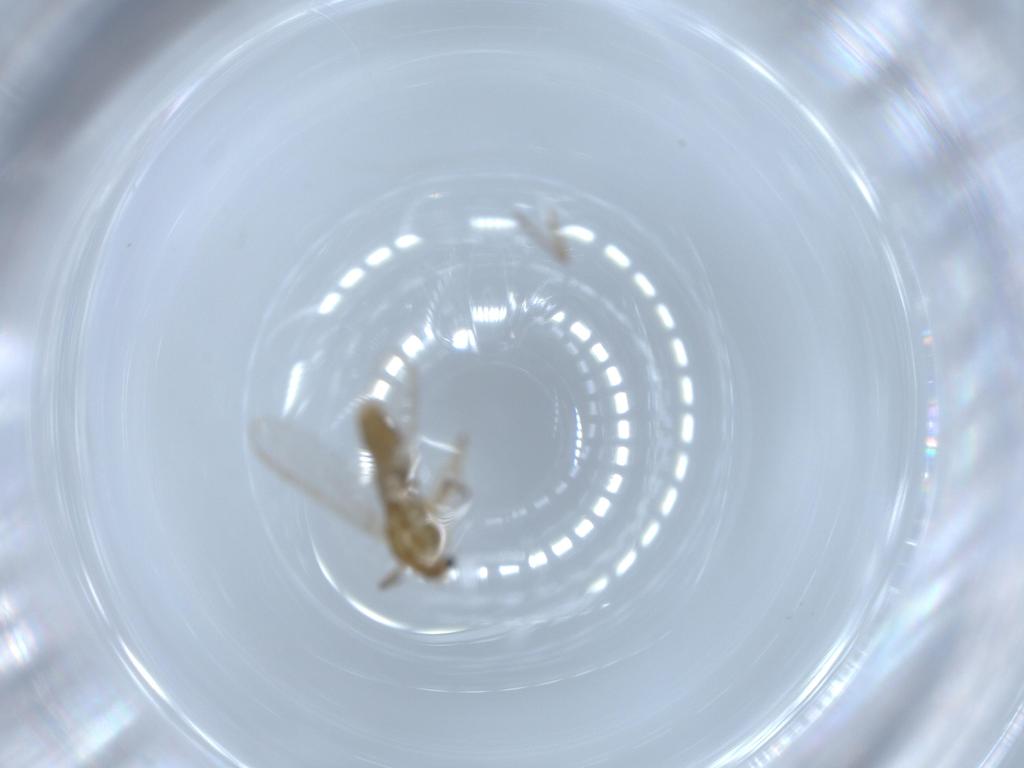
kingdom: Animalia
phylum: Arthropoda
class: Insecta
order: Diptera
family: Chironomidae
